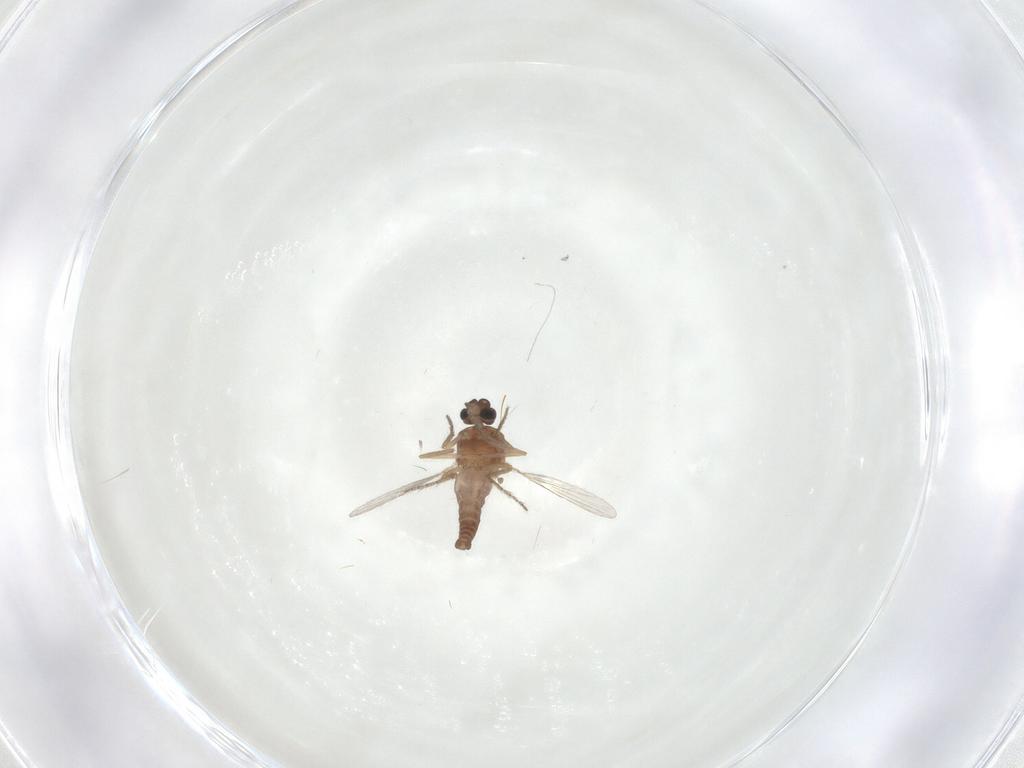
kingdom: Animalia
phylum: Arthropoda
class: Insecta
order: Diptera
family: Ceratopogonidae
